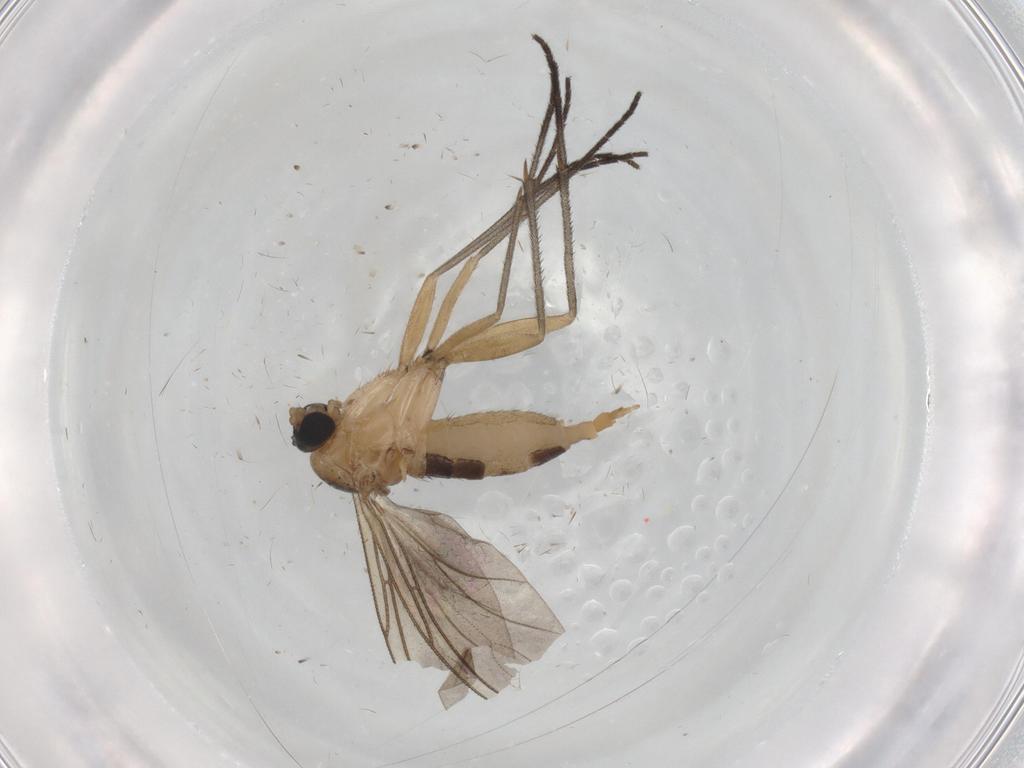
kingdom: Animalia
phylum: Arthropoda
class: Insecta
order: Diptera
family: Sciaridae
